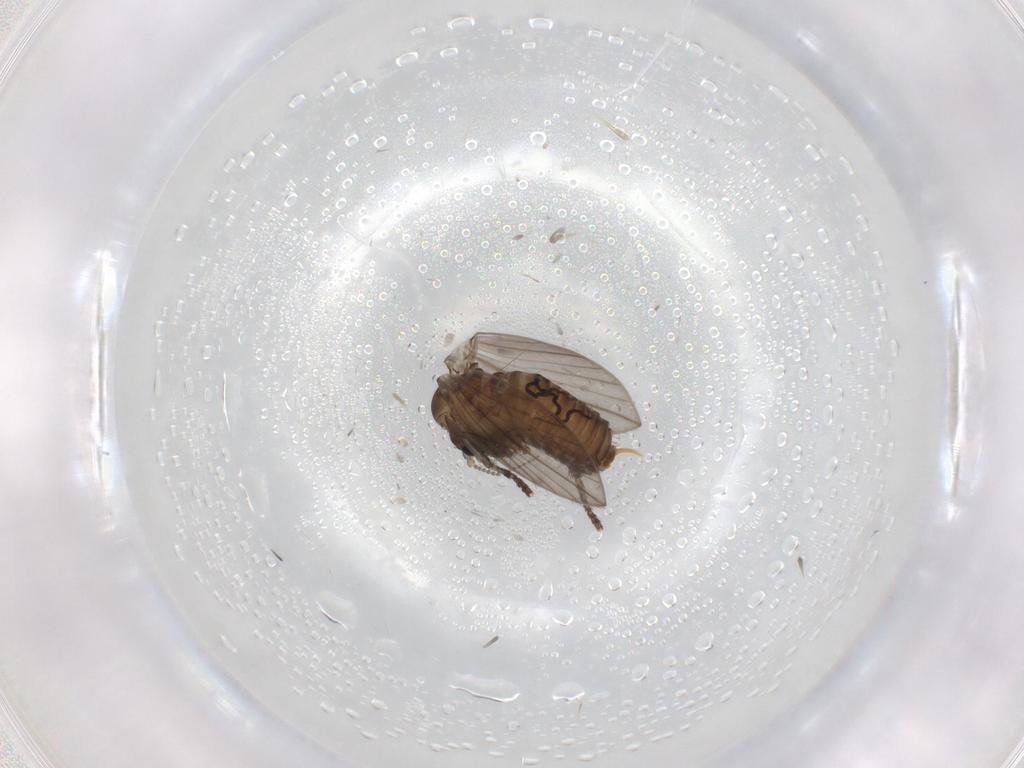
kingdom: Animalia
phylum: Arthropoda
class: Insecta
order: Diptera
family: Psychodidae
